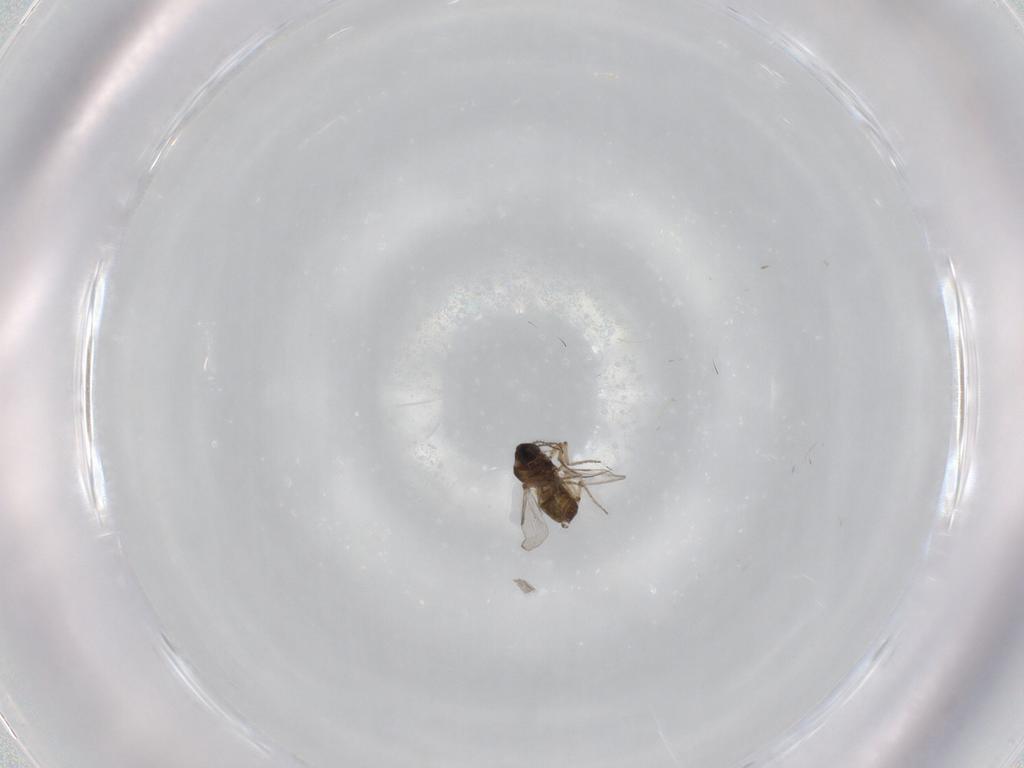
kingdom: Animalia
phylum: Arthropoda
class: Insecta
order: Diptera
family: Ceratopogonidae
